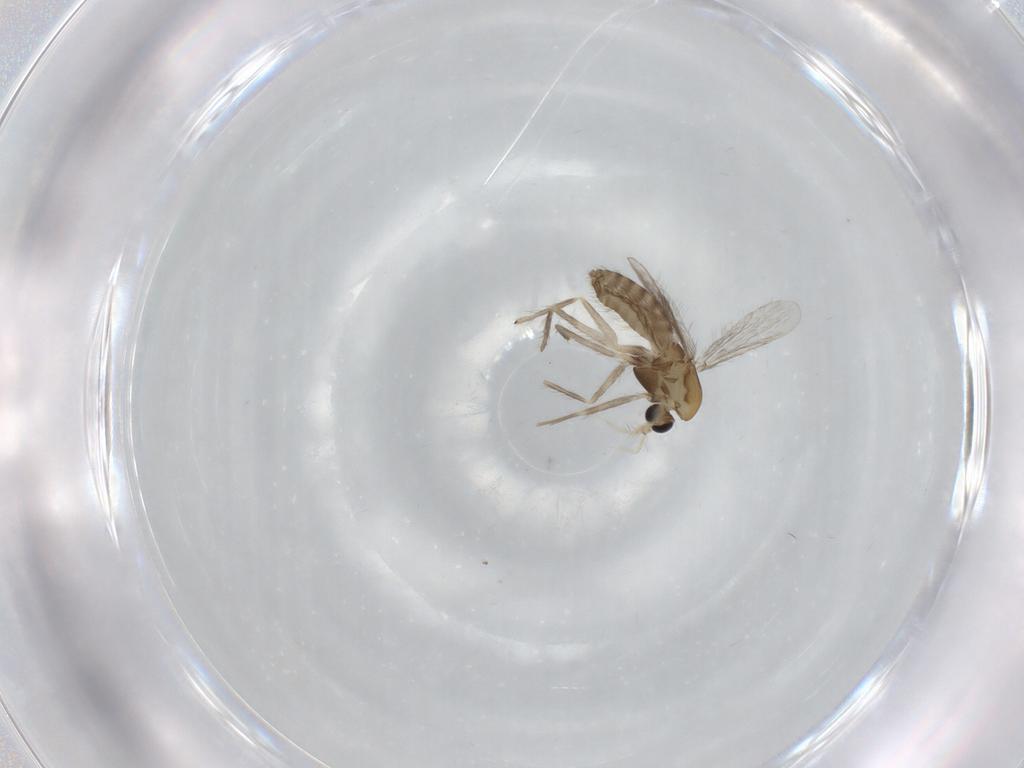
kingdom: Animalia
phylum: Arthropoda
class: Insecta
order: Diptera
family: Chironomidae
